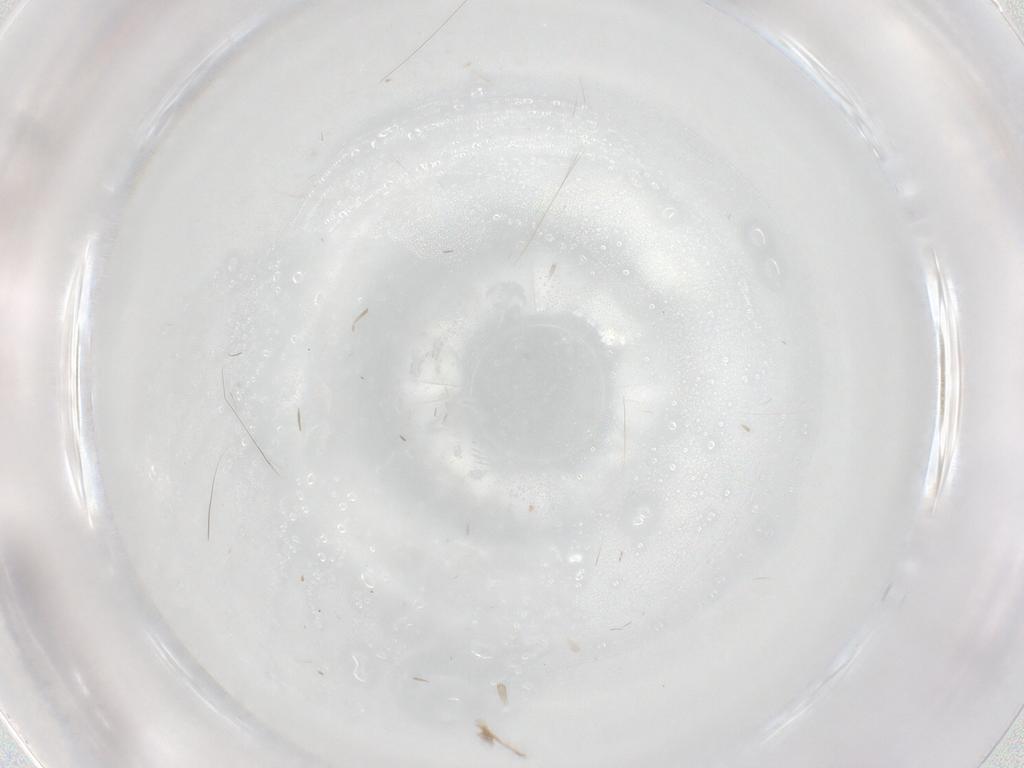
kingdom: Animalia
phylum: Arthropoda
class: Insecta
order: Diptera
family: Phoridae
